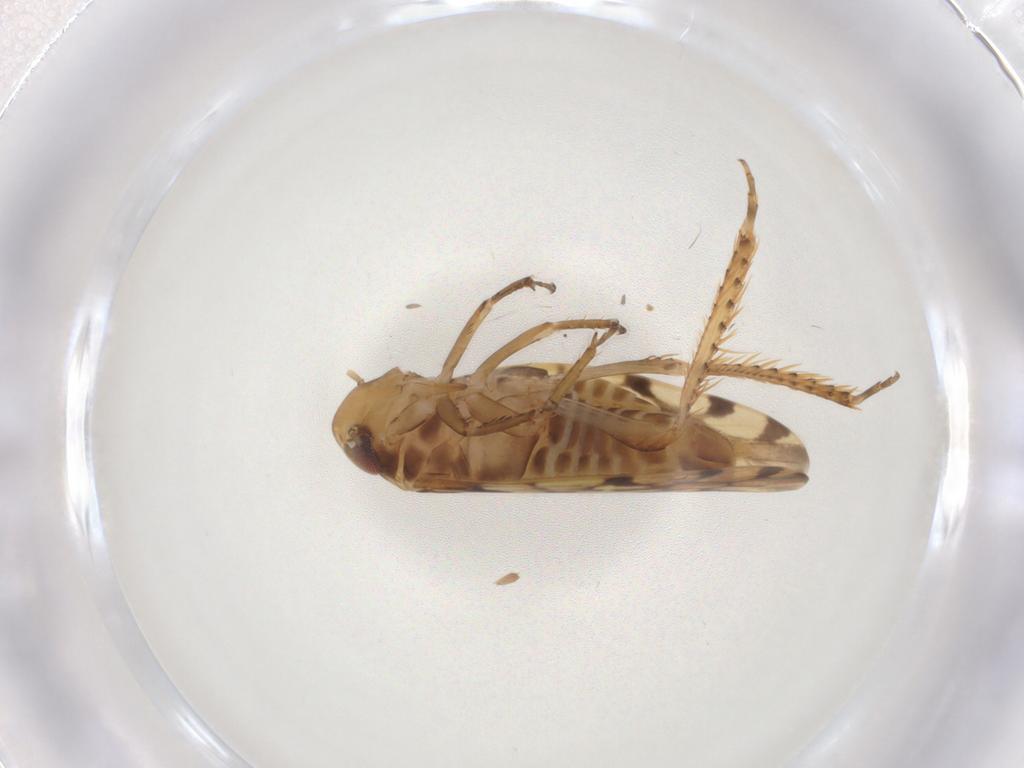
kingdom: Animalia
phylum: Arthropoda
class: Insecta
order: Hemiptera
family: Cicadellidae
